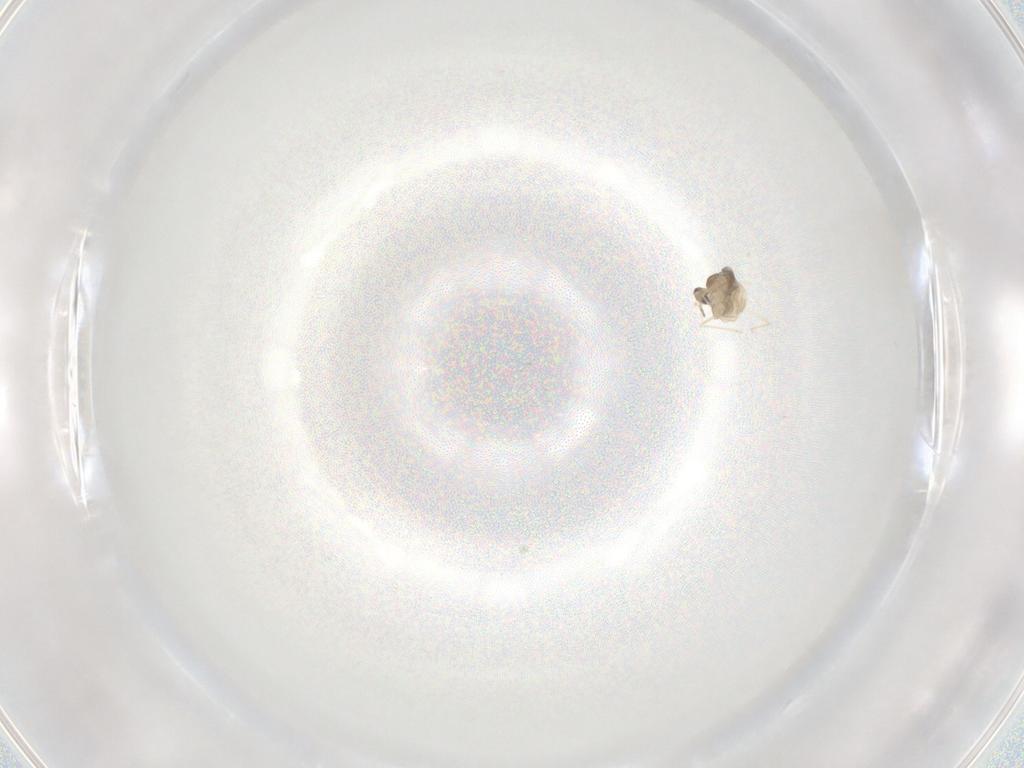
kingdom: Animalia
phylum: Arthropoda
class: Insecta
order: Diptera
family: Cecidomyiidae
